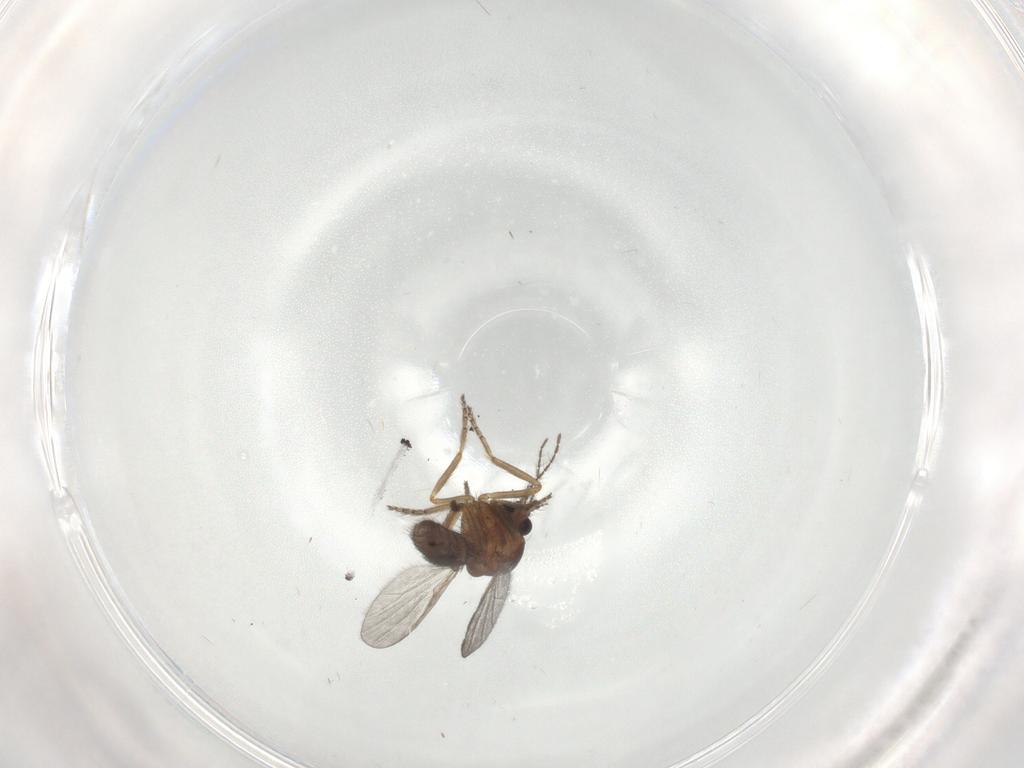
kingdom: Animalia
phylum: Arthropoda
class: Insecta
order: Diptera
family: Ceratopogonidae
